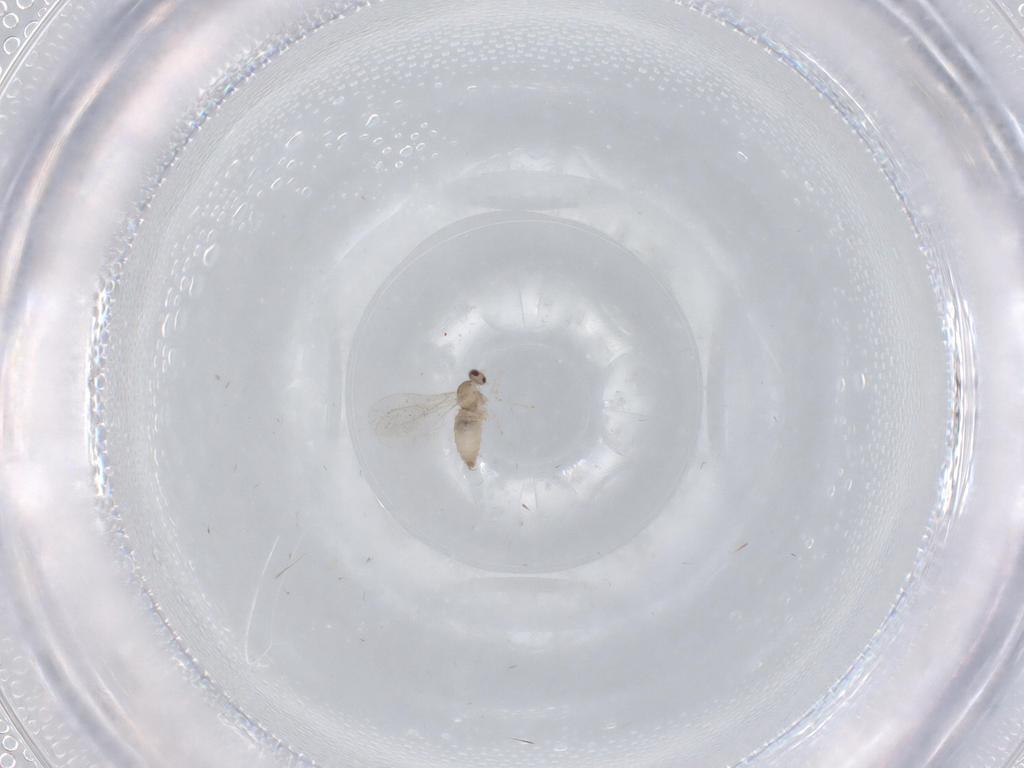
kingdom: Animalia
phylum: Arthropoda
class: Insecta
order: Diptera
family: Cecidomyiidae
